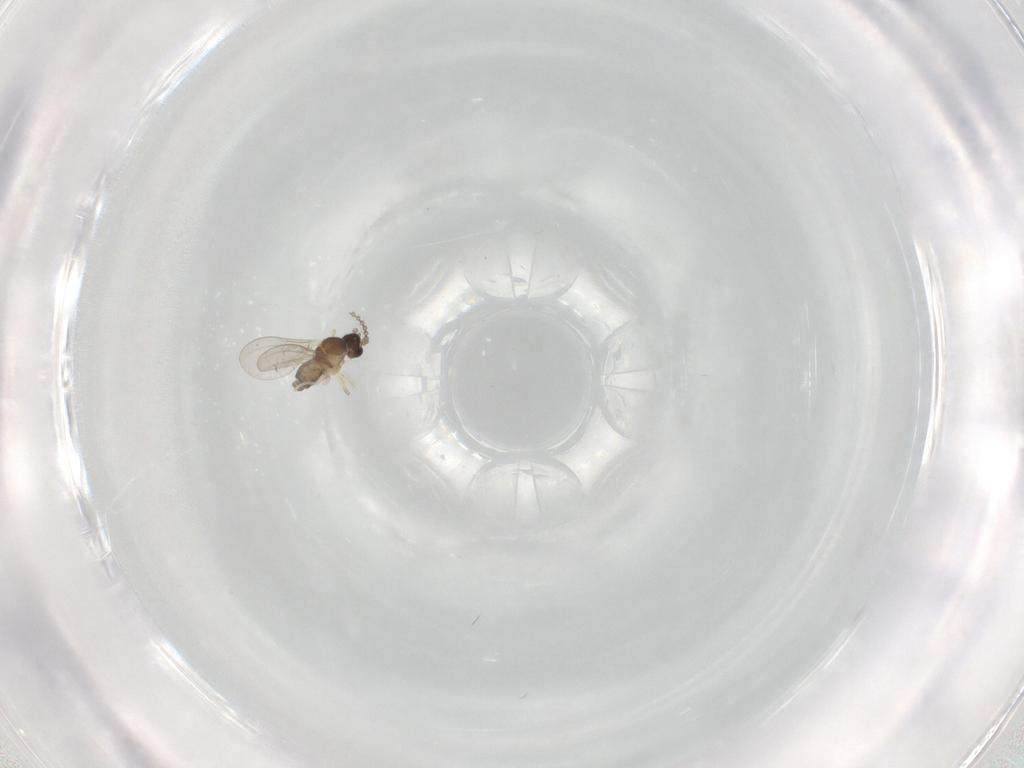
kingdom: Animalia
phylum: Arthropoda
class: Insecta
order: Diptera
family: Cecidomyiidae
